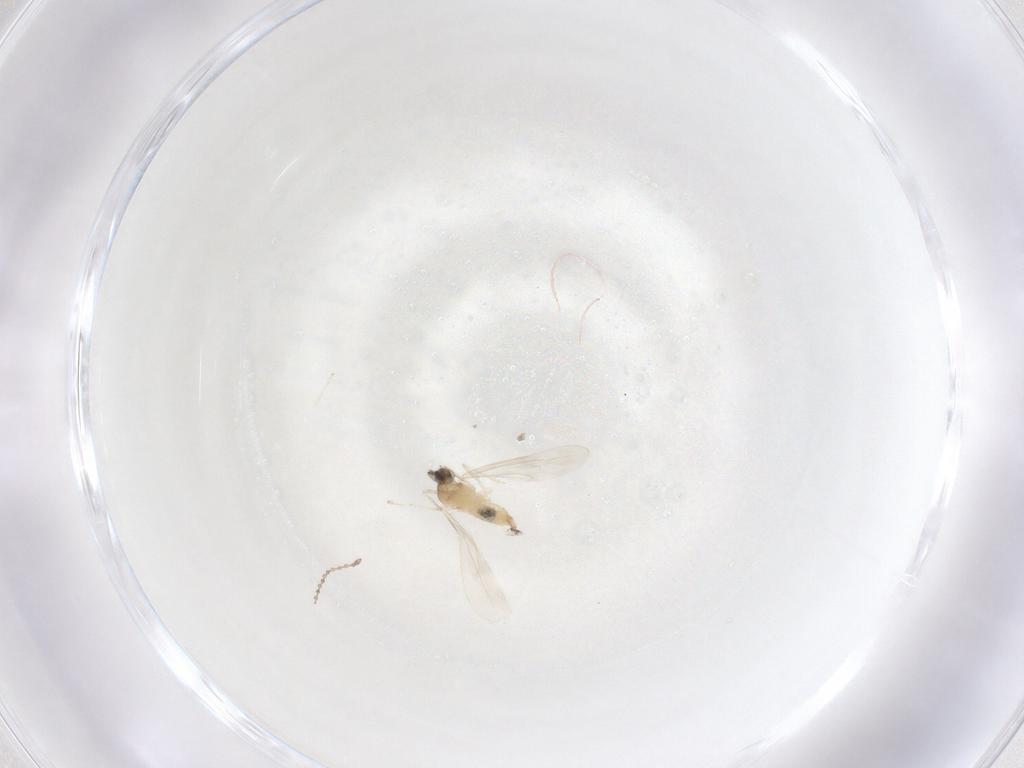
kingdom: Animalia
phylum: Arthropoda
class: Insecta
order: Diptera
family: Cecidomyiidae
